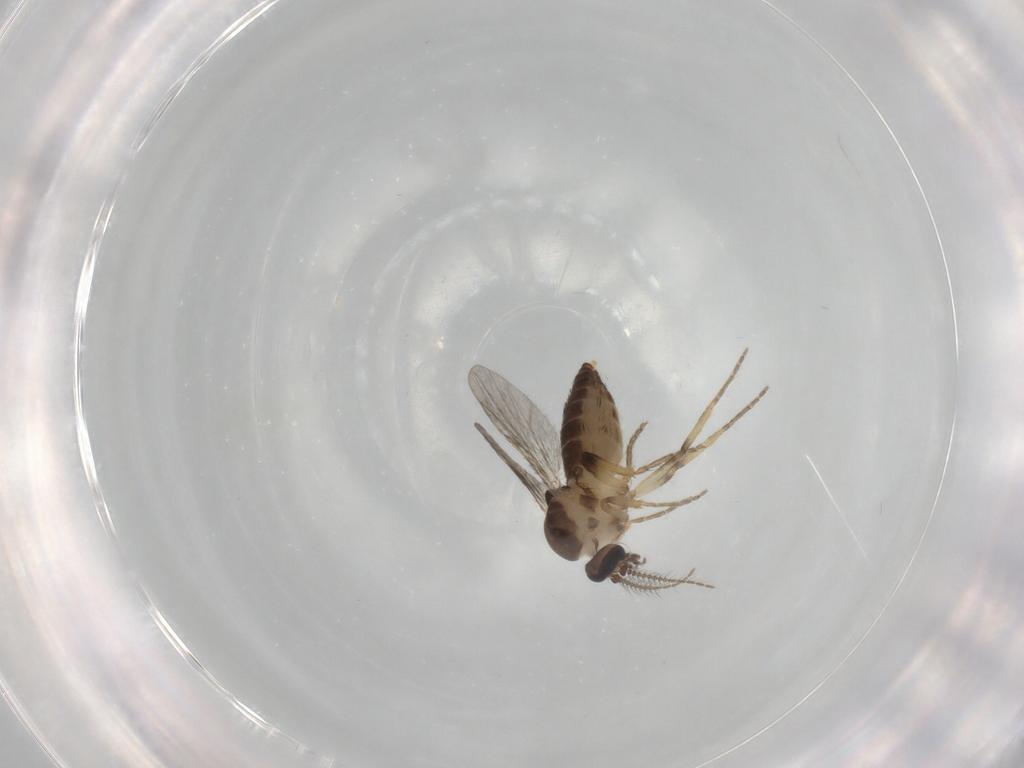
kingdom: Animalia
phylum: Arthropoda
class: Insecta
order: Diptera
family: Ceratopogonidae
